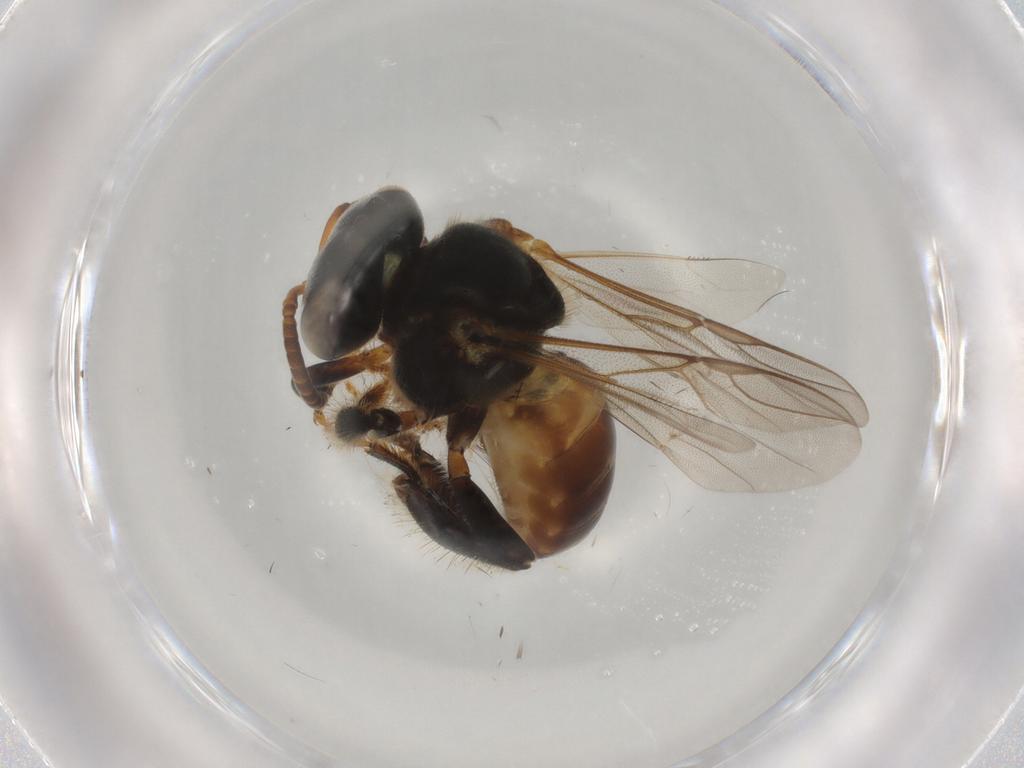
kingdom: Animalia
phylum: Arthropoda
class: Insecta
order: Hymenoptera
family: Apidae
